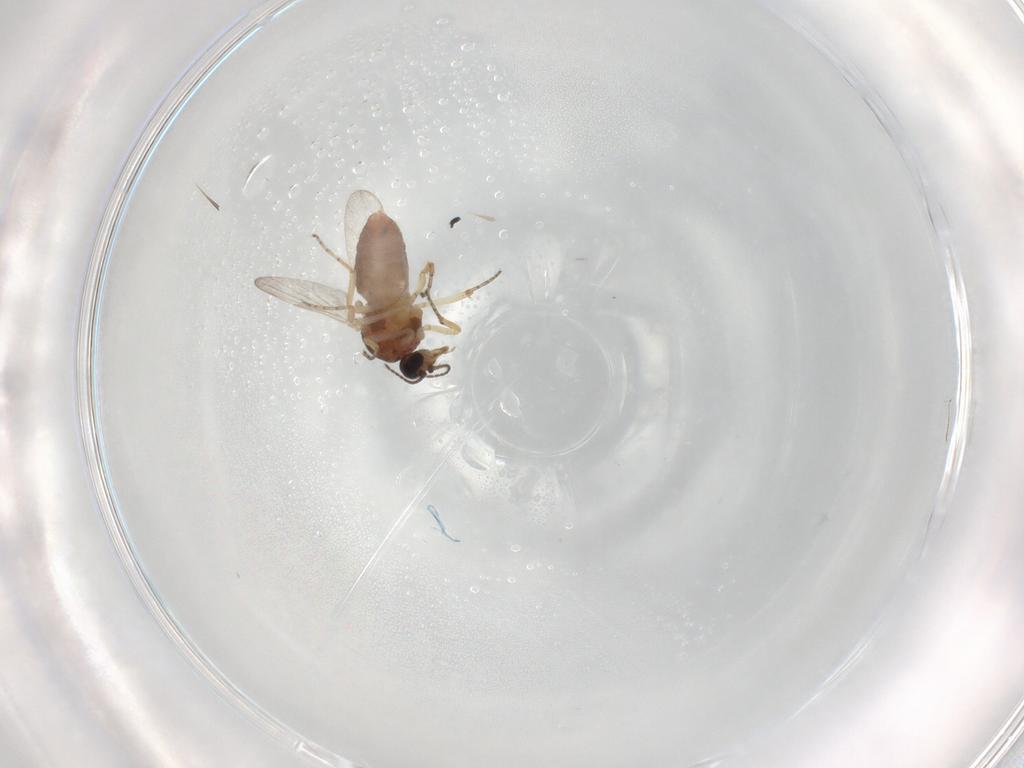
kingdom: Animalia
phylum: Arthropoda
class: Insecta
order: Diptera
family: Ceratopogonidae
